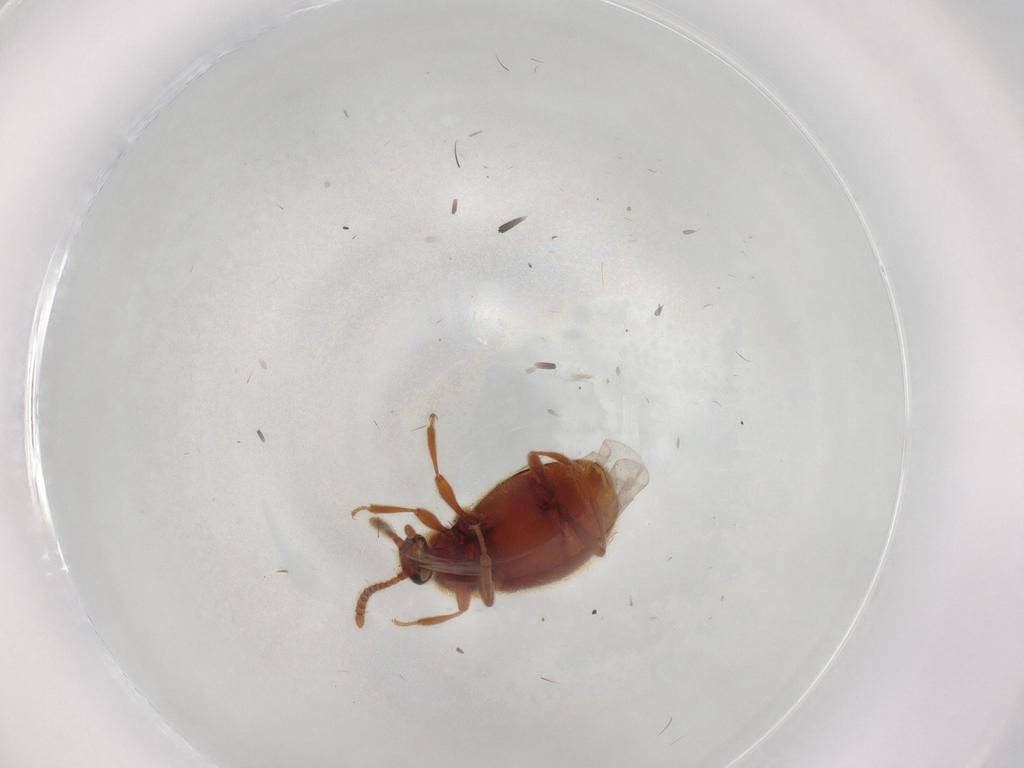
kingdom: Animalia
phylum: Arthropoda
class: Insecta
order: Coleoptera
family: Staphylinidae
